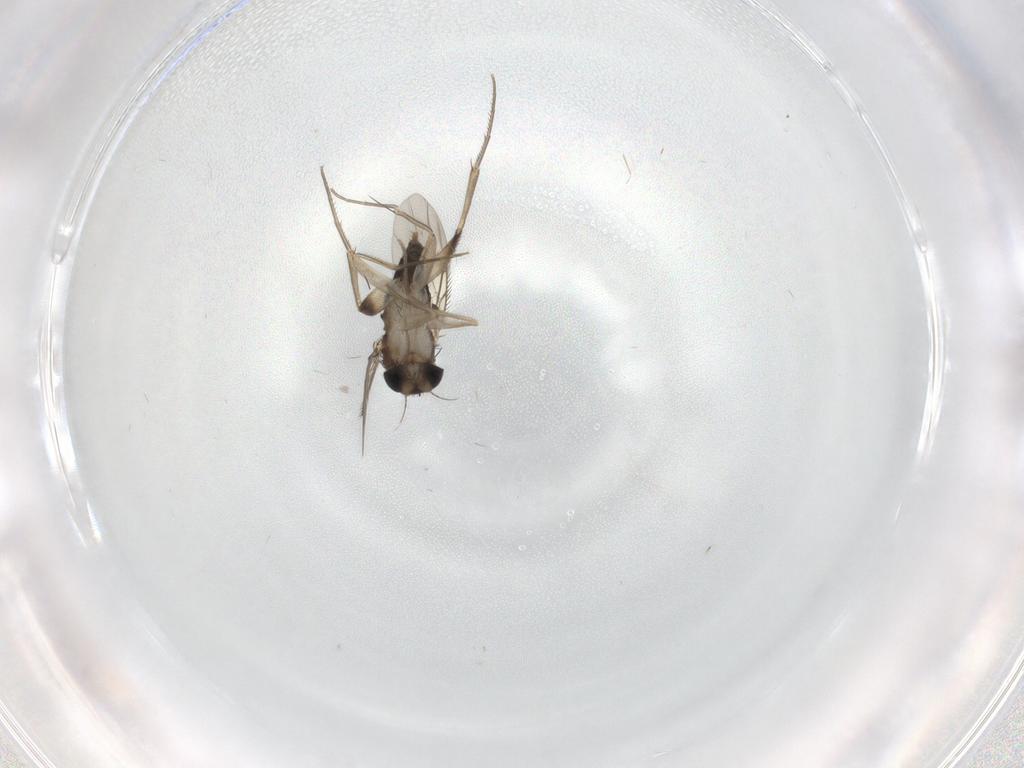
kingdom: Animalia
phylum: Arthropoda
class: Insecta
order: Diptera
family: Phoridae
